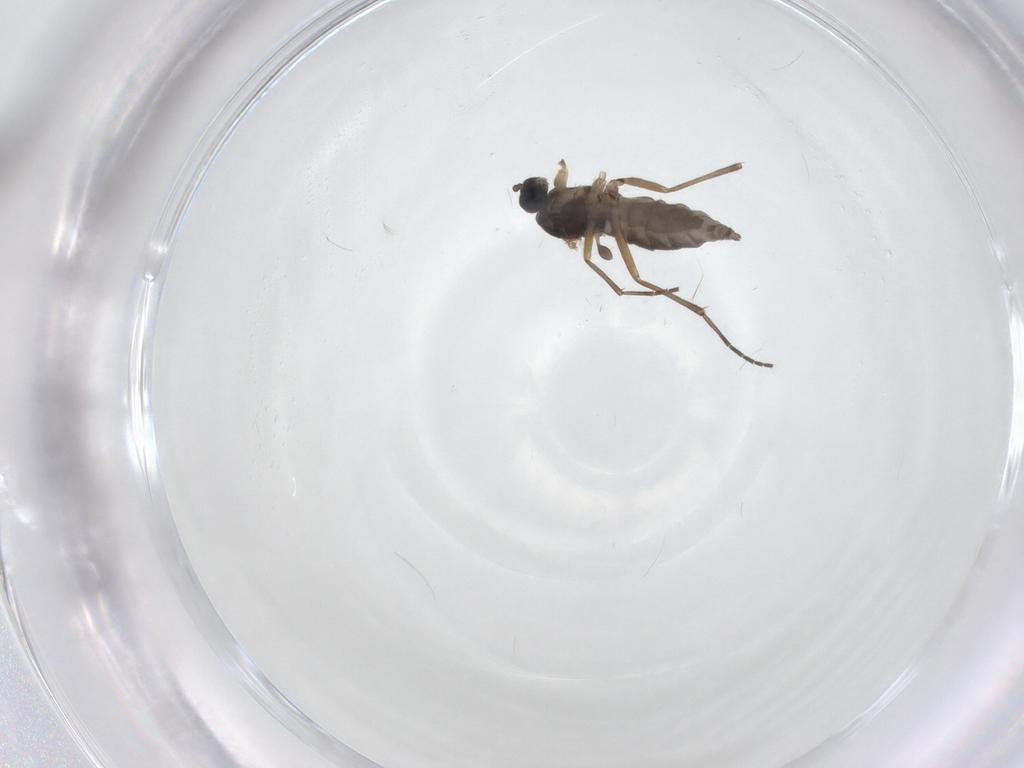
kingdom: Animalia
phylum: Arthropoda
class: Insecta
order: Diptera
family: Sciaridae
